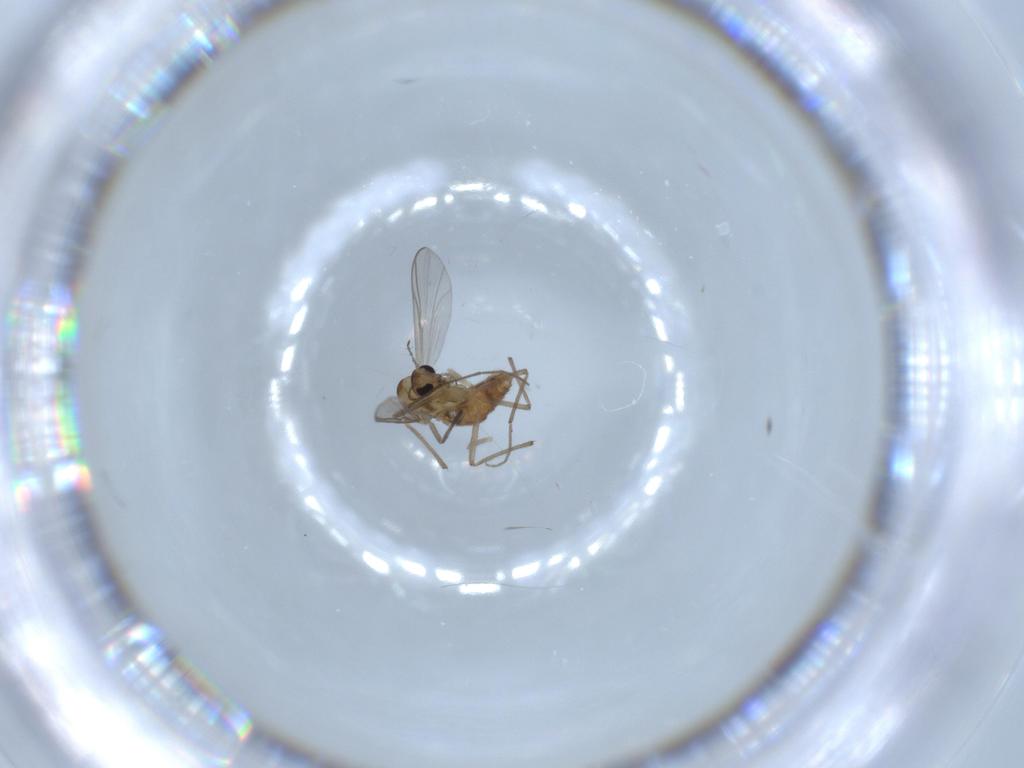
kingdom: Animalia
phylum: Arthropoda
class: Insecta
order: Diptera
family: Chironomidae
